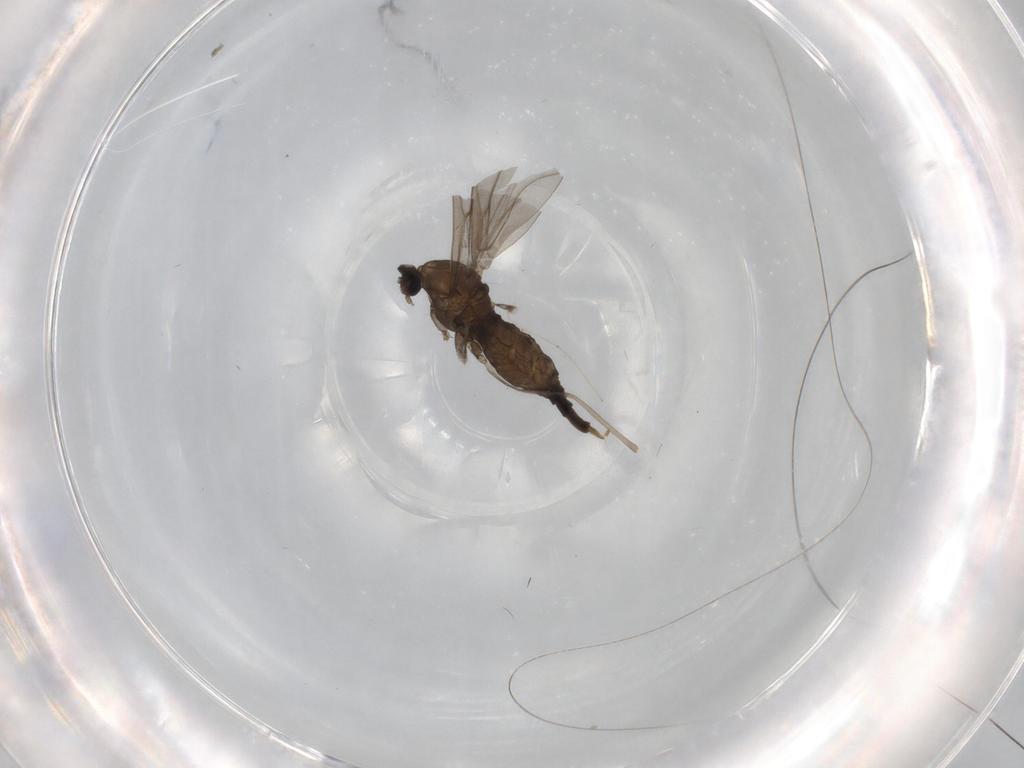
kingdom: Animalia
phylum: Arthropoda
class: Insecta
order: Diptera
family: Cecidomyiidae
